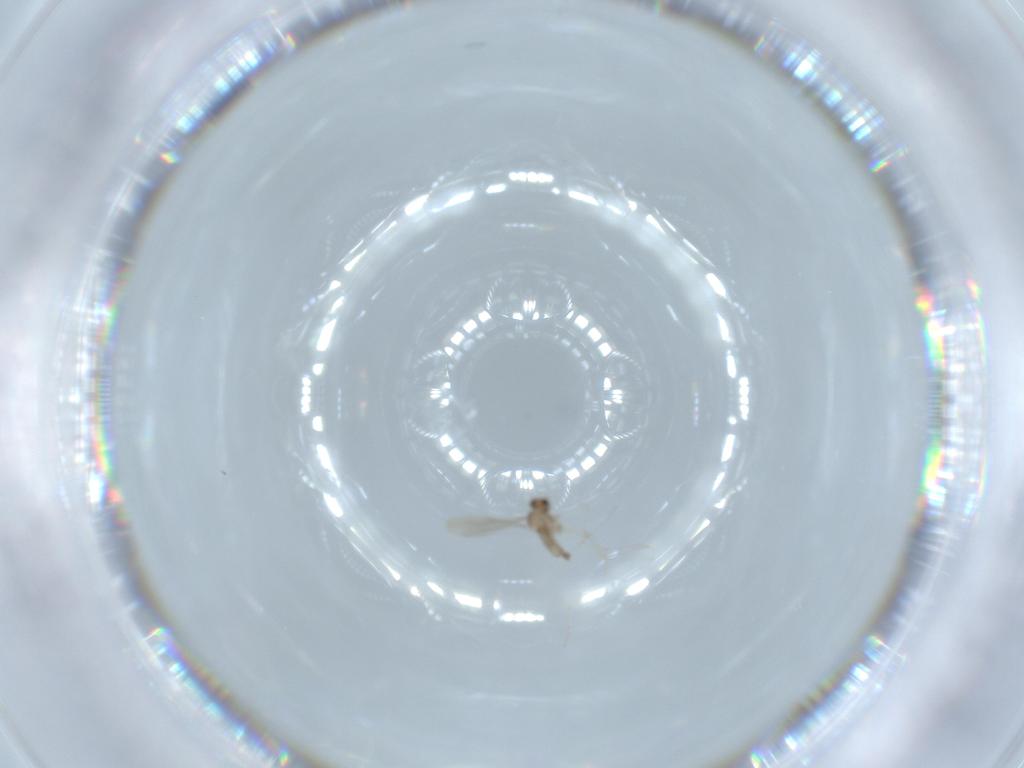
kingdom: Animalia
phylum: Arthropoda
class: Insecta
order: Diptera
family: Cecidomyiidae
